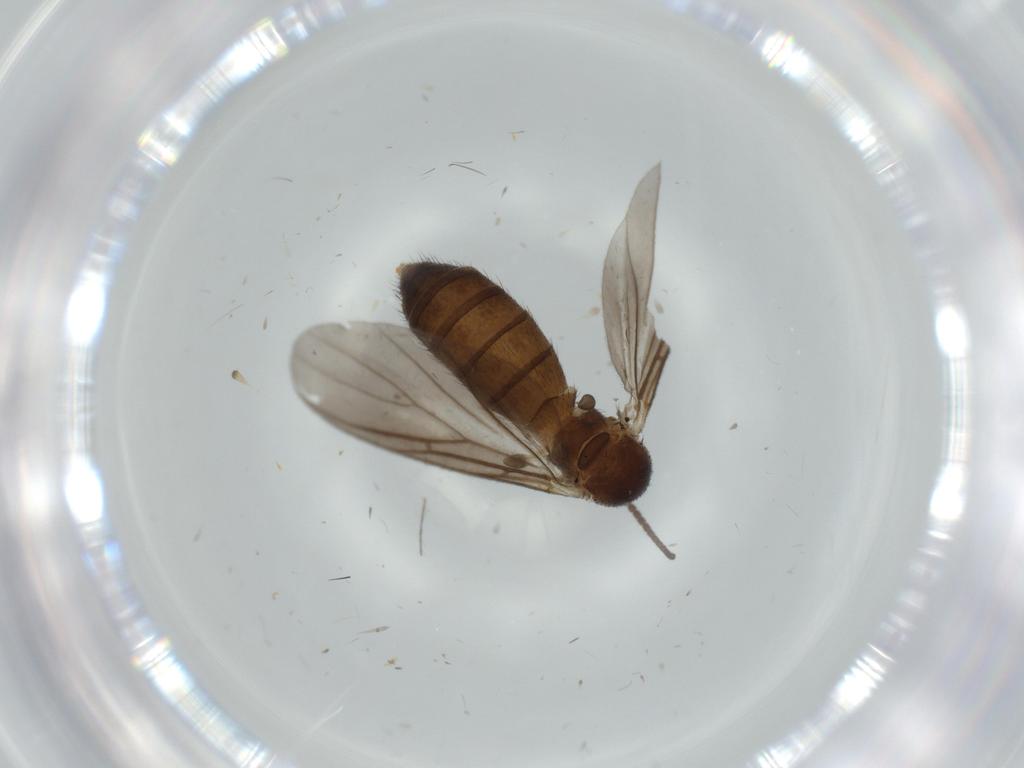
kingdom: Animalia
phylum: Arthropoda
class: Insecta
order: Diptera
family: Mycetophilidae
